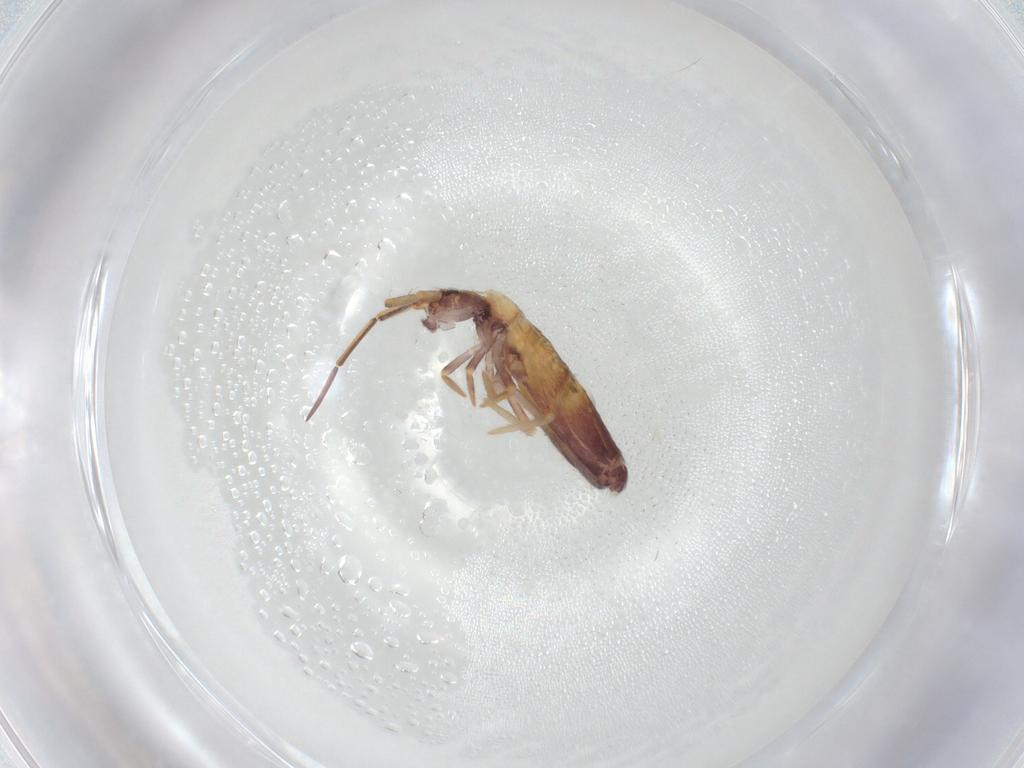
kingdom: Animalia
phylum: Arthropoda
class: Collembola
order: Entomobryomorpha
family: Entomobryidae
